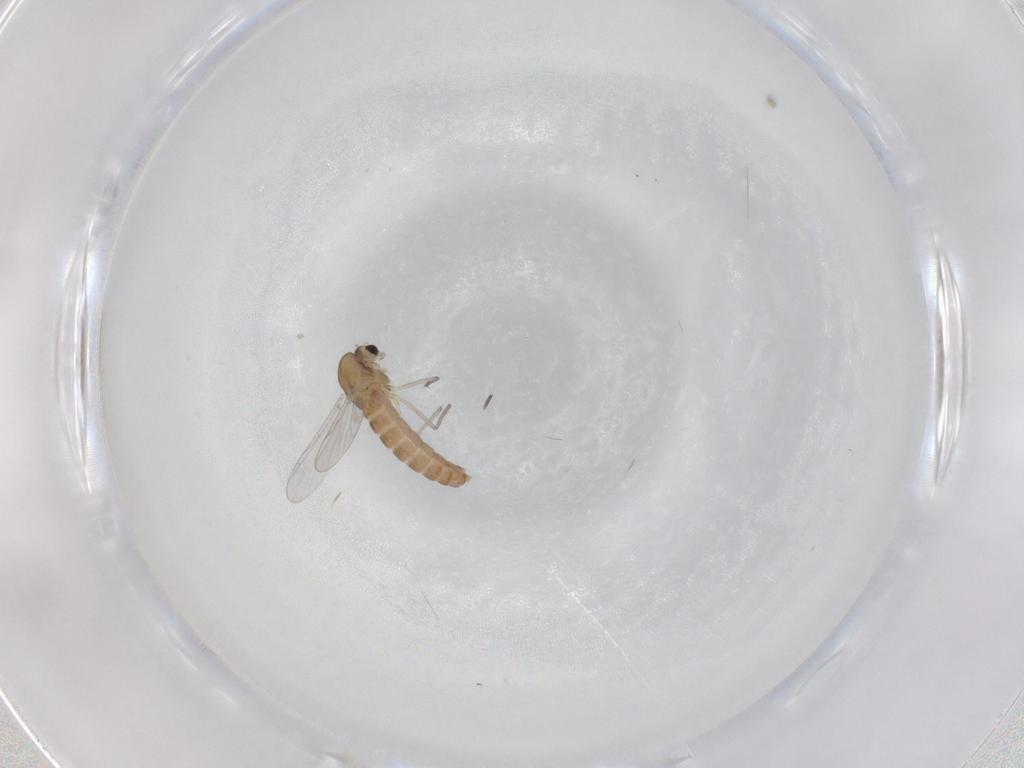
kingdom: Animalia
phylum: Arthropoda
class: Insecta
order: Diptera
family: Chironomidae
